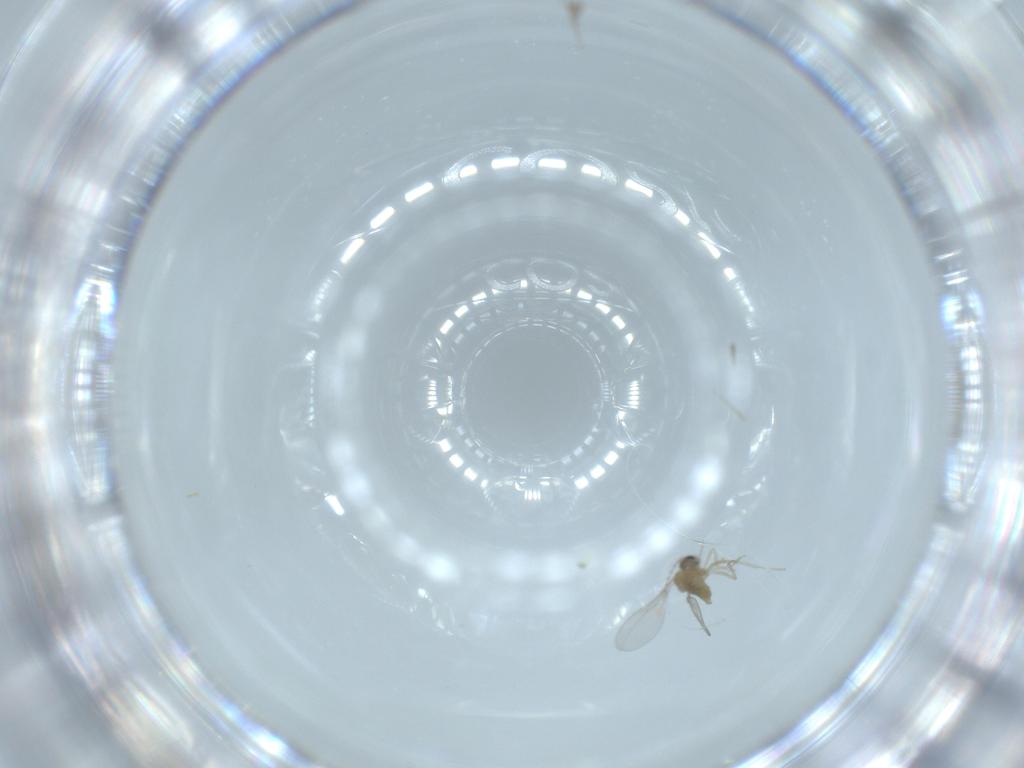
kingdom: Animalia
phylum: Arthropoda
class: Insecta
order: Diptera
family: Cecidomyiidae
